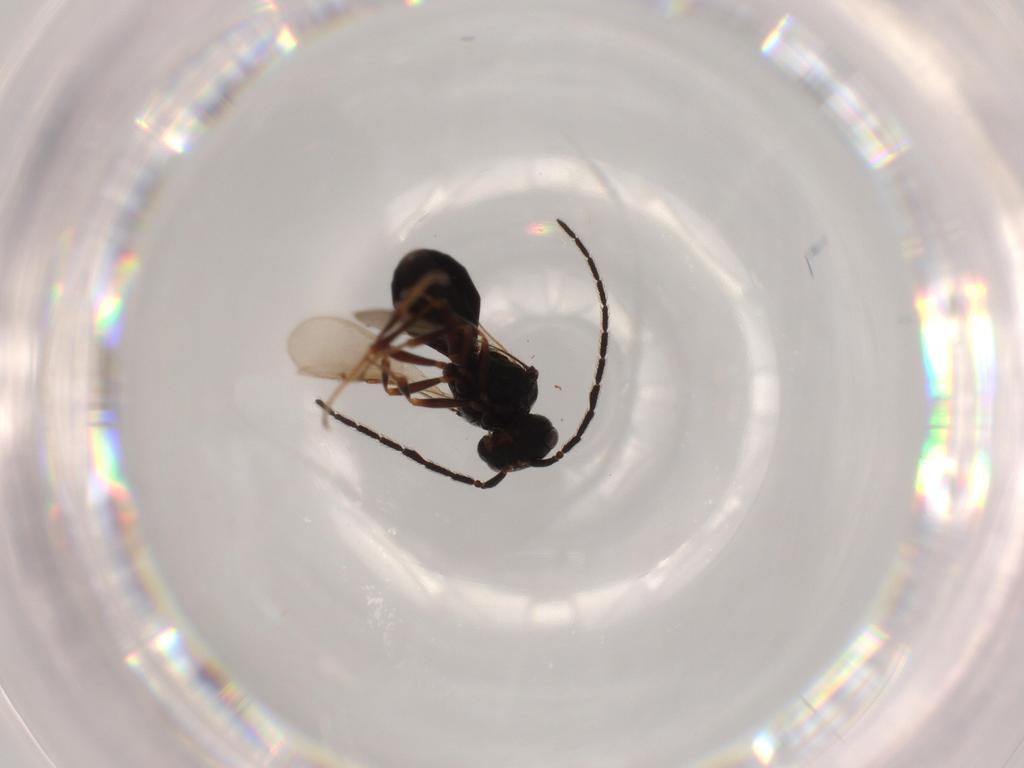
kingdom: Animalia
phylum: Arthropoda
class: Insecta
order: Hymenoptera
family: Scelionidae
